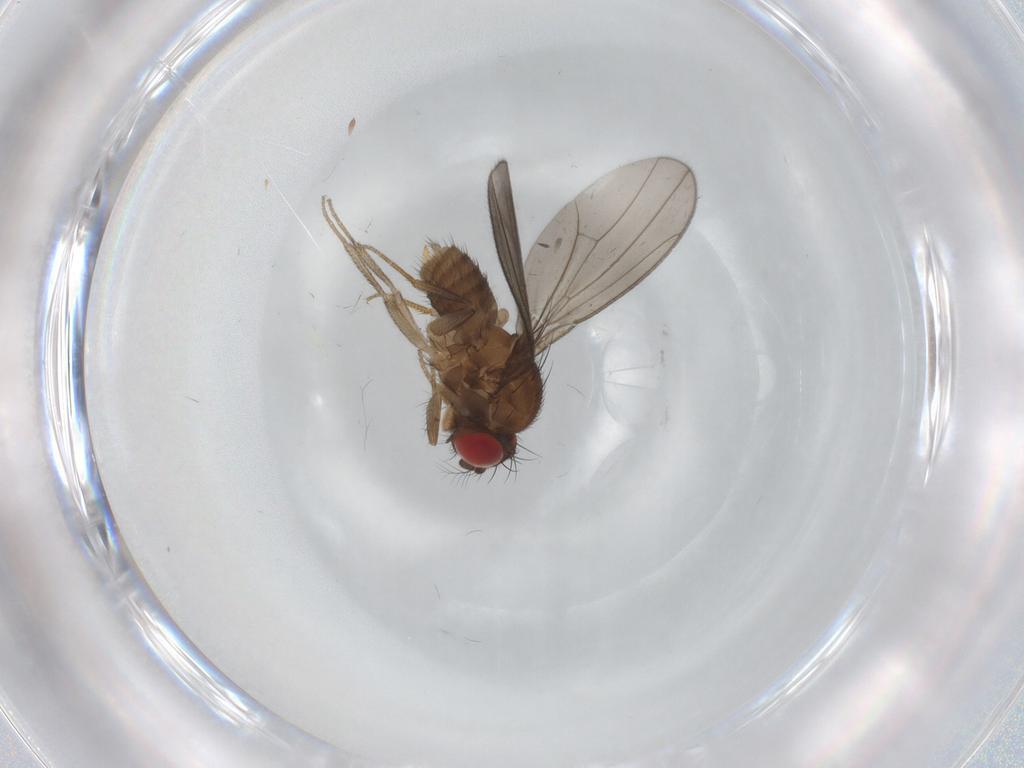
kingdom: Animalia
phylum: Arthropoda
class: Insecta
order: Diptera
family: Drosophilidae
